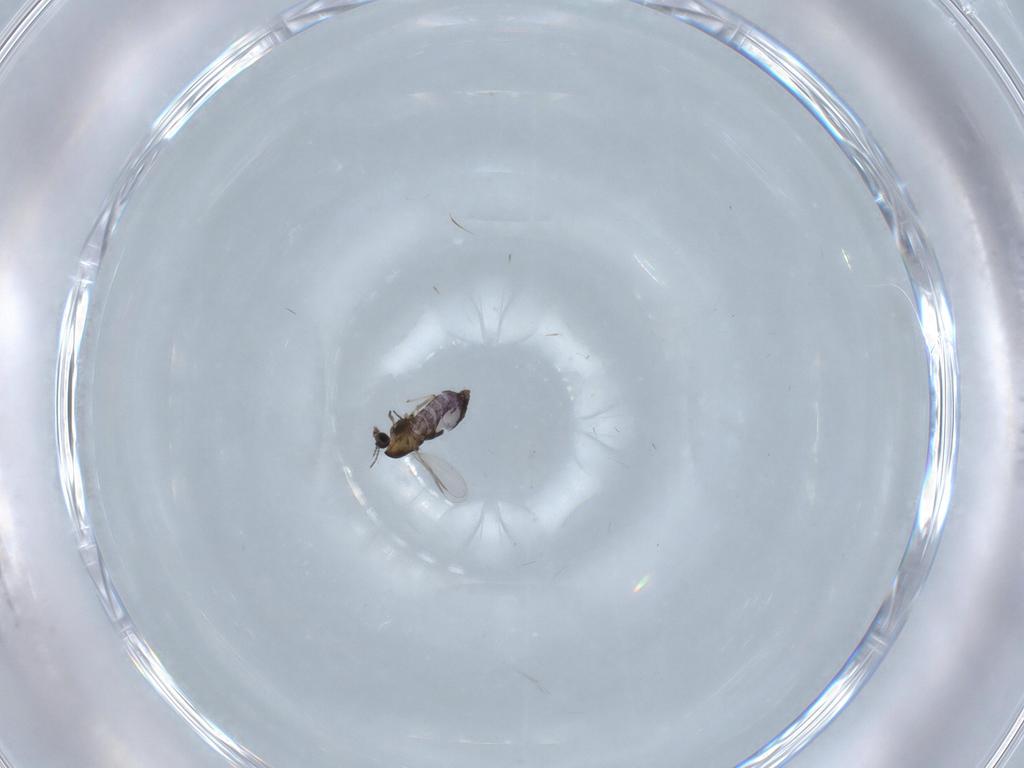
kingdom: Animalia
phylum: Arthropoda
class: Insecta
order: Diptera
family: Chironomidae
